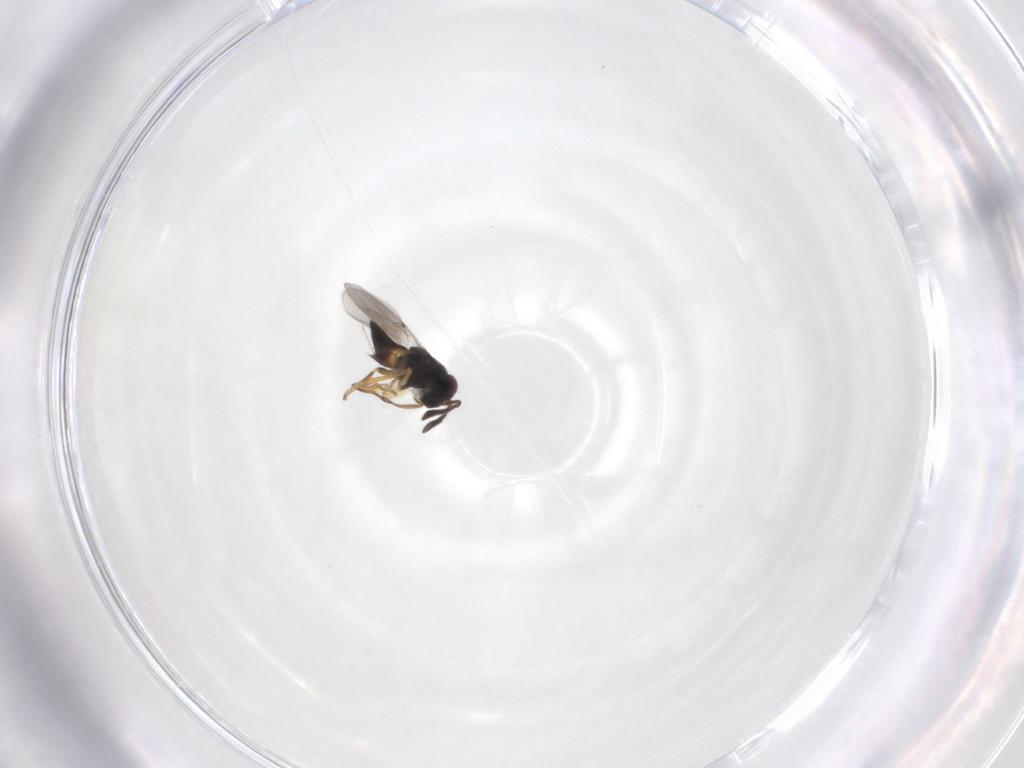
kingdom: Animalia
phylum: Arthropoda
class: Insecta
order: Hymenoptera
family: Platygastridae
